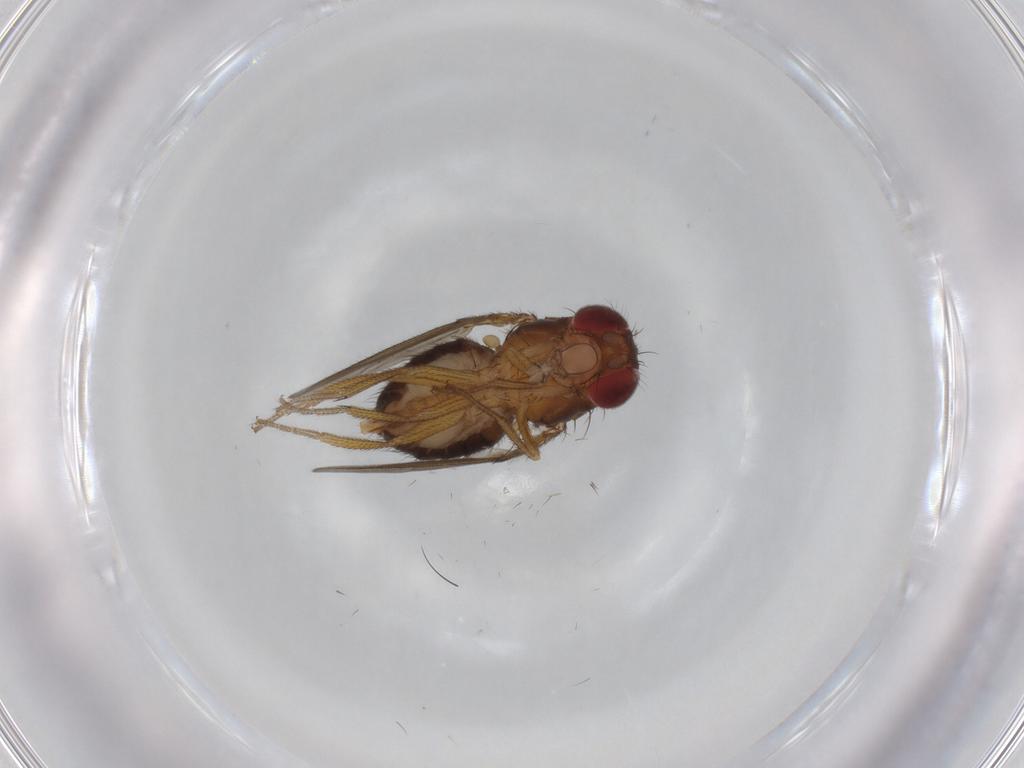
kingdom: Animalia
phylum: Arthropoda
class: Insecta
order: Diptera
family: Drosophilidae
